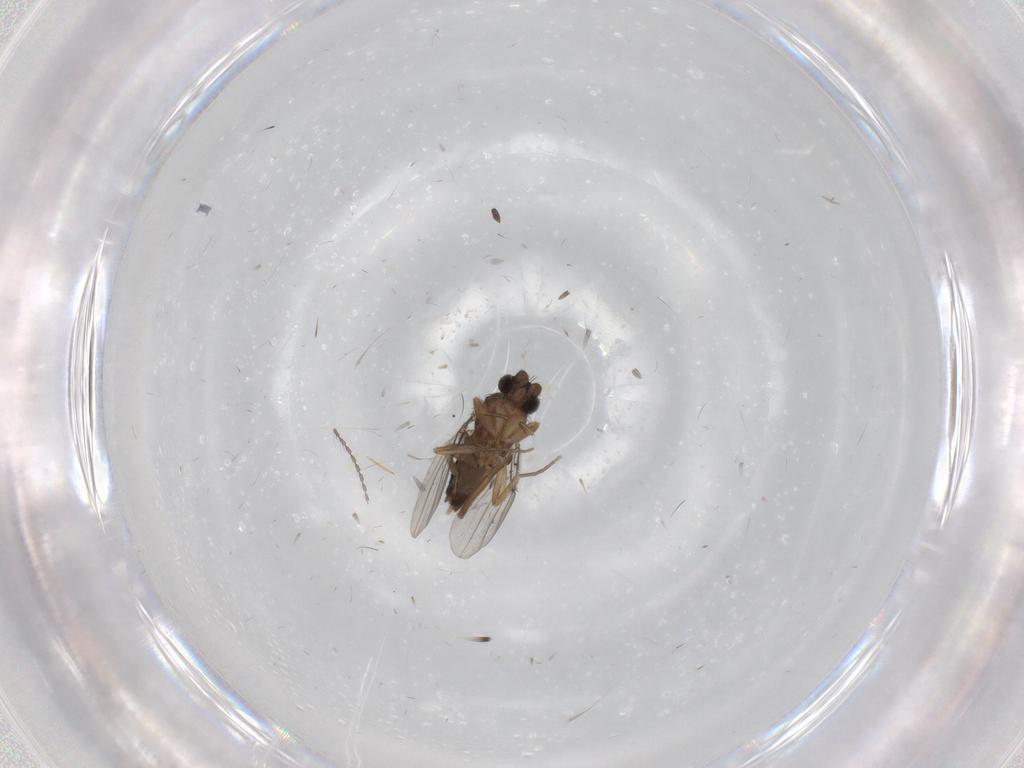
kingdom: Animalia
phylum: Arthropoda
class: Insecta
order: Diptera
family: Phoridae
